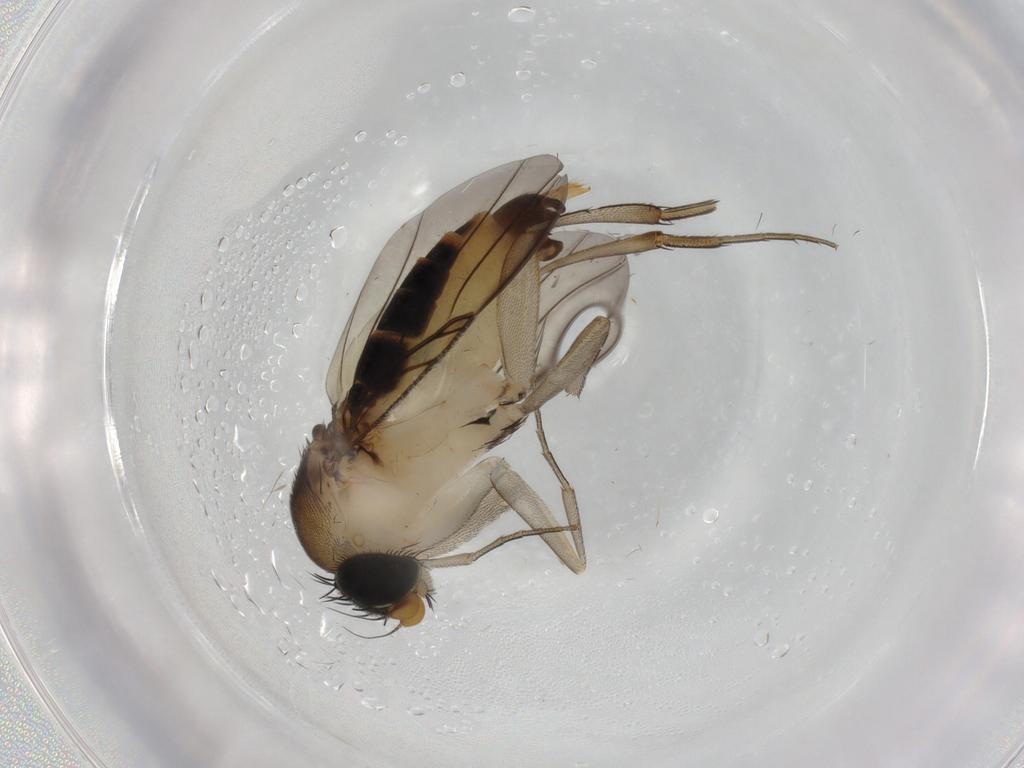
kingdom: Animalia
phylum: Arthropoda
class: Insecta
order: Diptera
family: Phoridae
